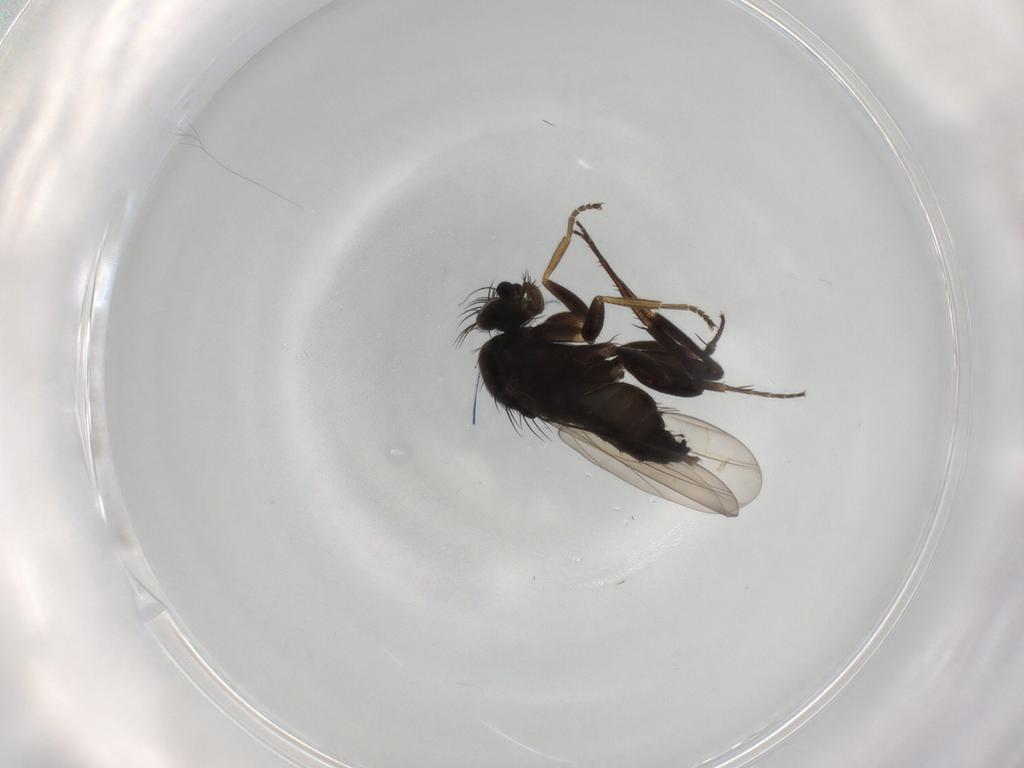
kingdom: Animalia
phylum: Arthropoda
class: Insecta
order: Diptera
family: Phoridae
